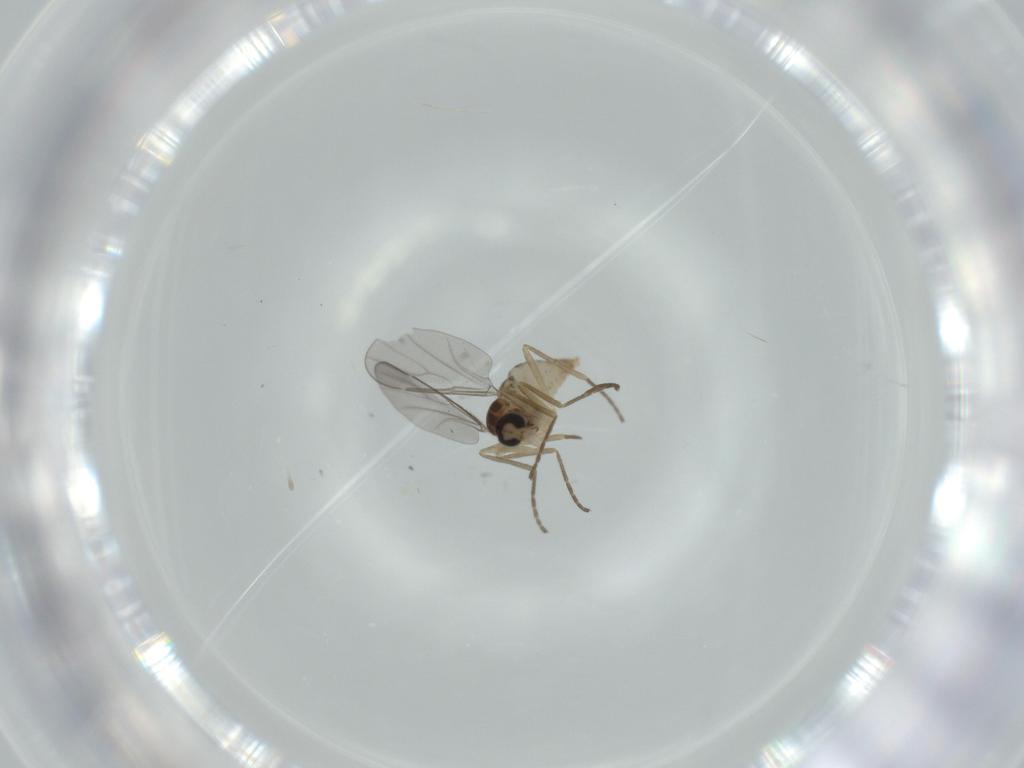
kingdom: Animalia
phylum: Arthropoda
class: Insecta
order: Diptera
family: Cecidomyiidae
